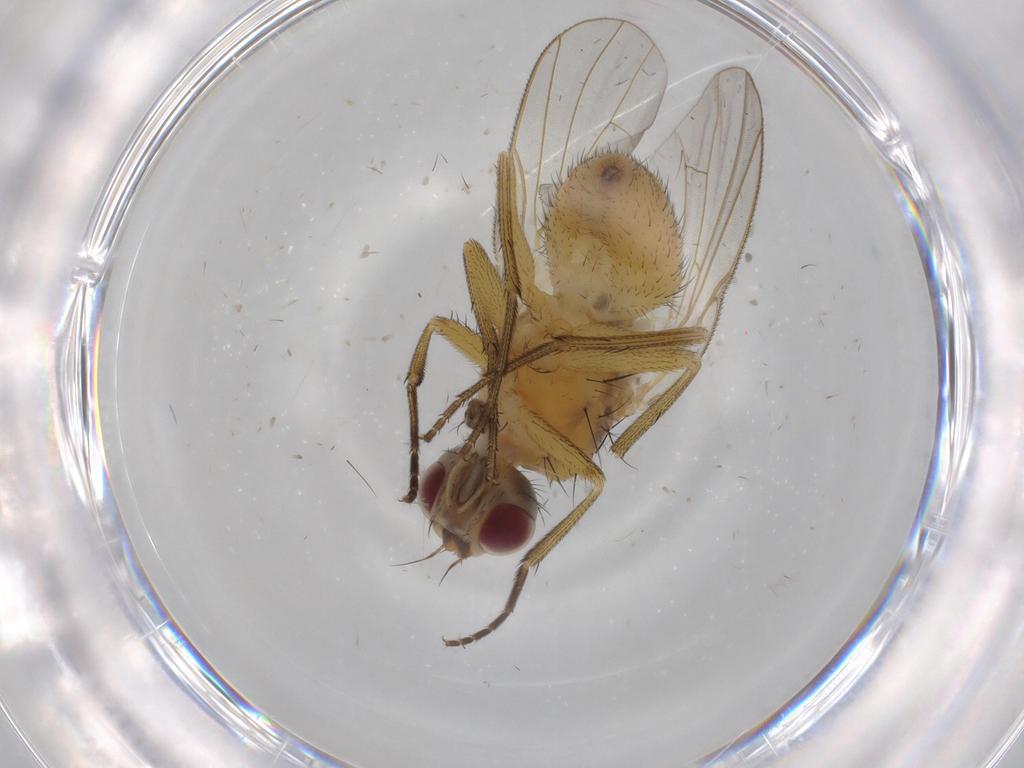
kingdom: Animalia
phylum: Arthropoda
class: Insecta
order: Diptera
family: Muscidae
